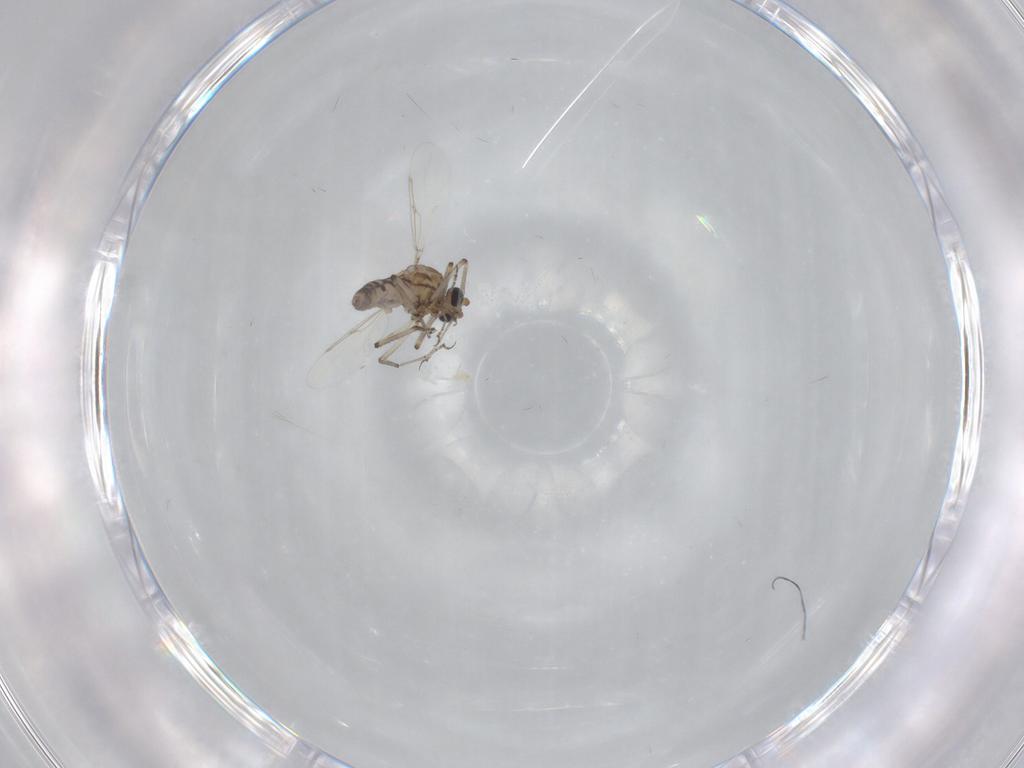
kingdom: Animalia
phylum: Arthropoda
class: Insecta
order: Diptera
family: Ceratopogonidae
